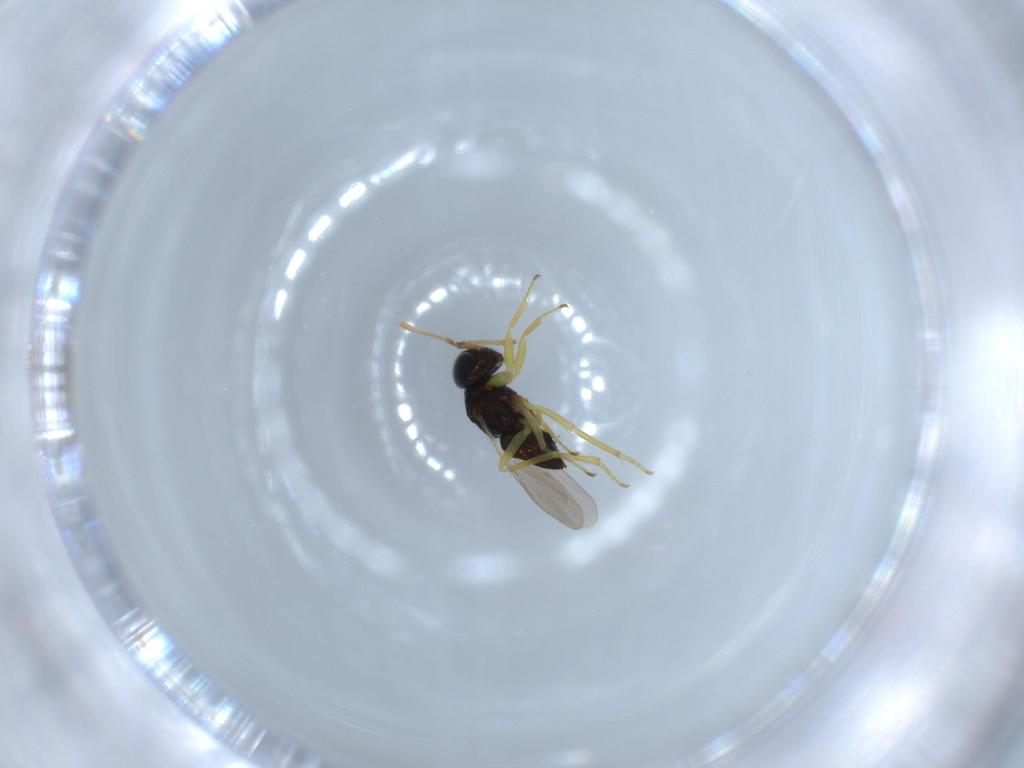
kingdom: Animalia
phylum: Arthropoda
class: Insecta
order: Hymenoptera
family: Encyrtidae
